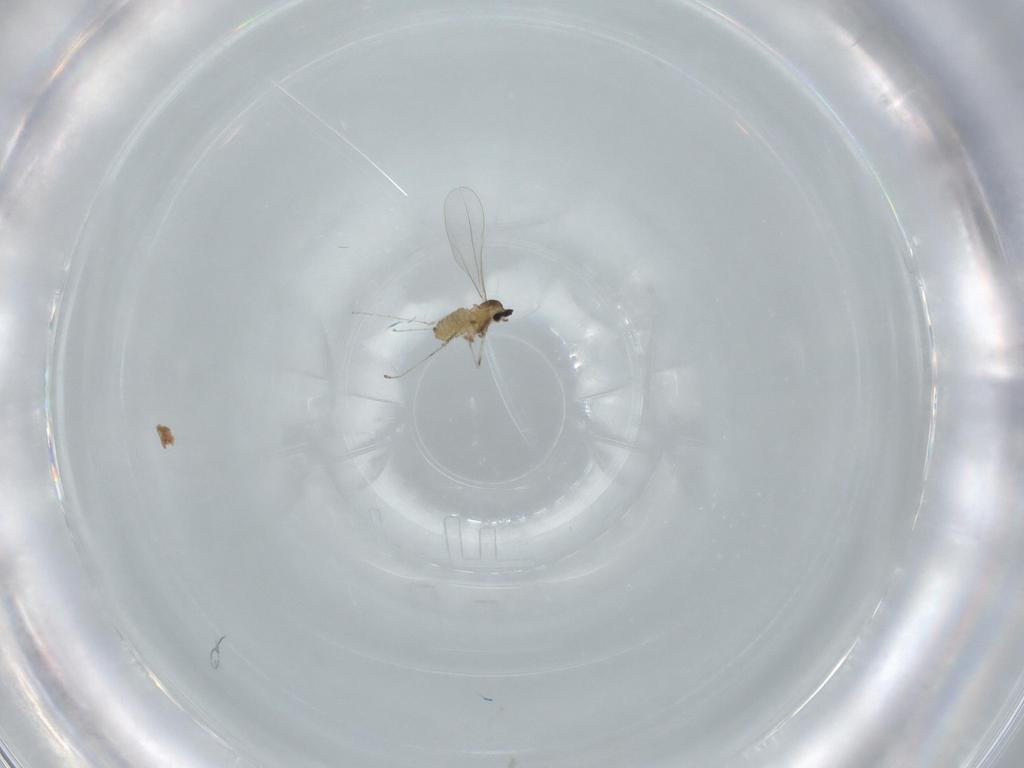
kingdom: Animalia
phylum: Arthropoda
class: Insecta
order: Diptera
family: Cecidomyiidae
